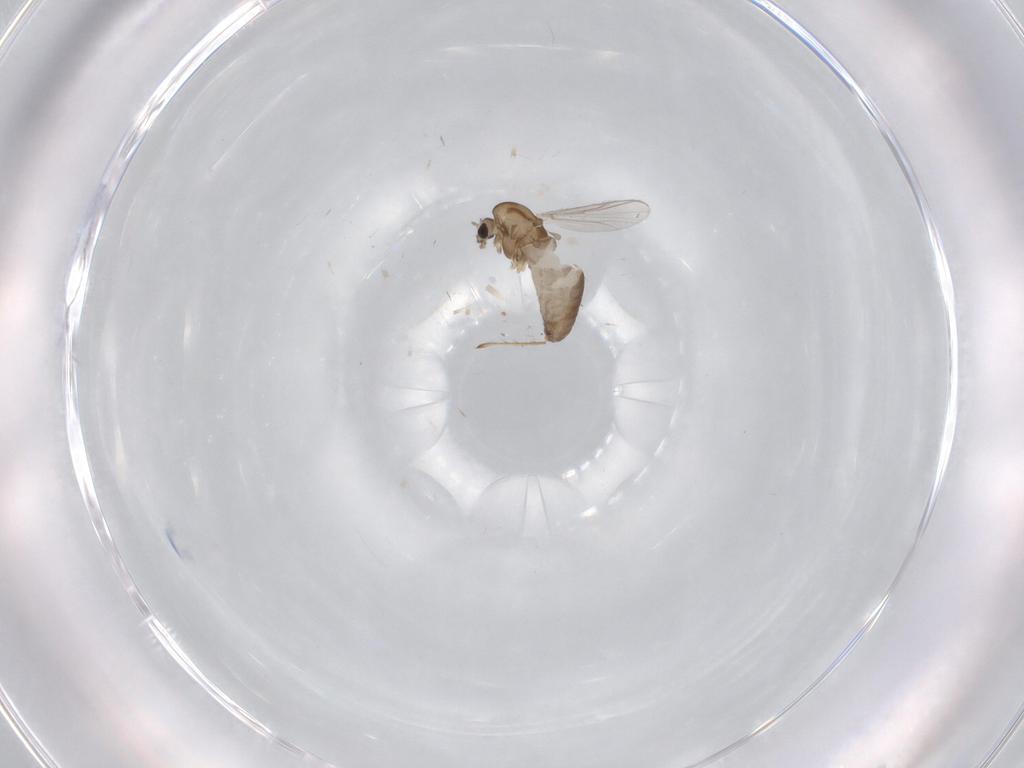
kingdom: Animalia
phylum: Arthropoda
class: Insecta
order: Diptera
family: Chironomidae
